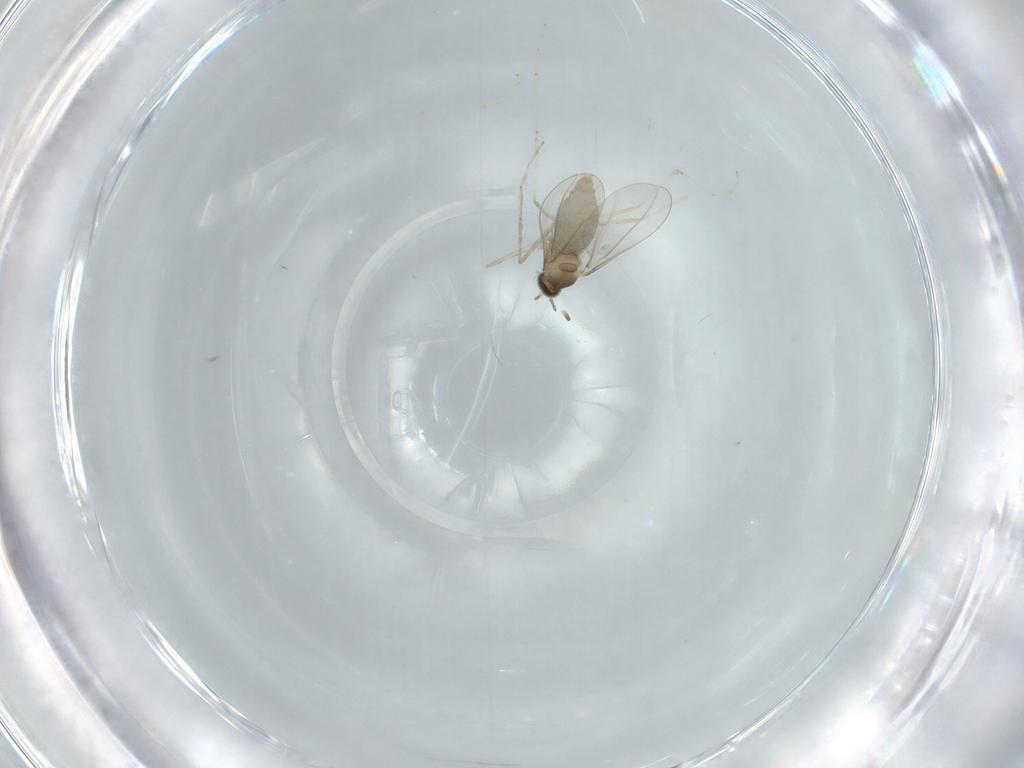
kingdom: Animalia
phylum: Arthropoda
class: Insecta
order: Diptera
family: Cecidomyiidae
